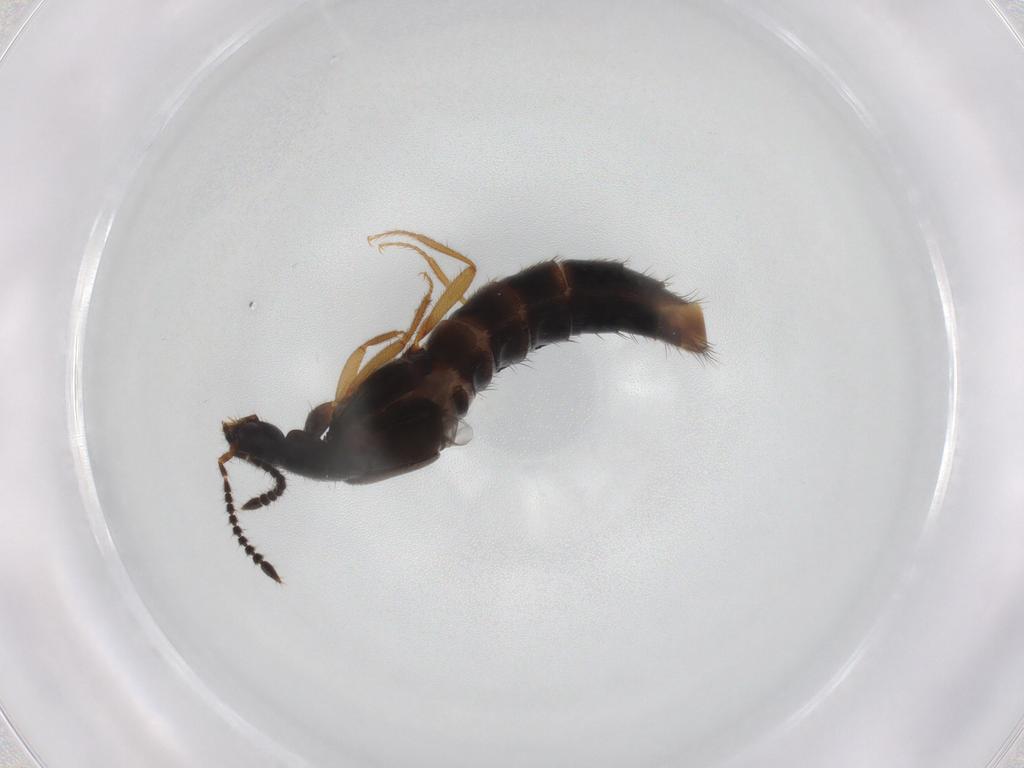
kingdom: Animalia
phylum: Arthropoda
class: Insecta
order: Coleoptera
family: Staphylinidae
